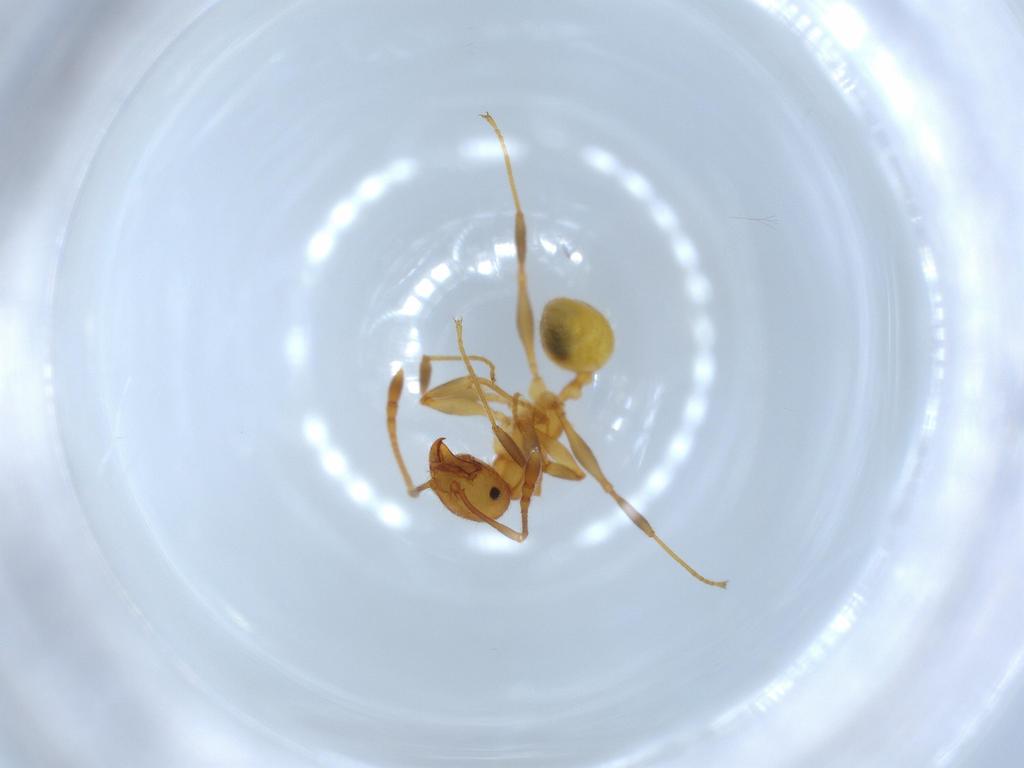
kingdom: Animalia
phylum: Arthropoda
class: Insecta
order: Hymenoptera
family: Formicidae
